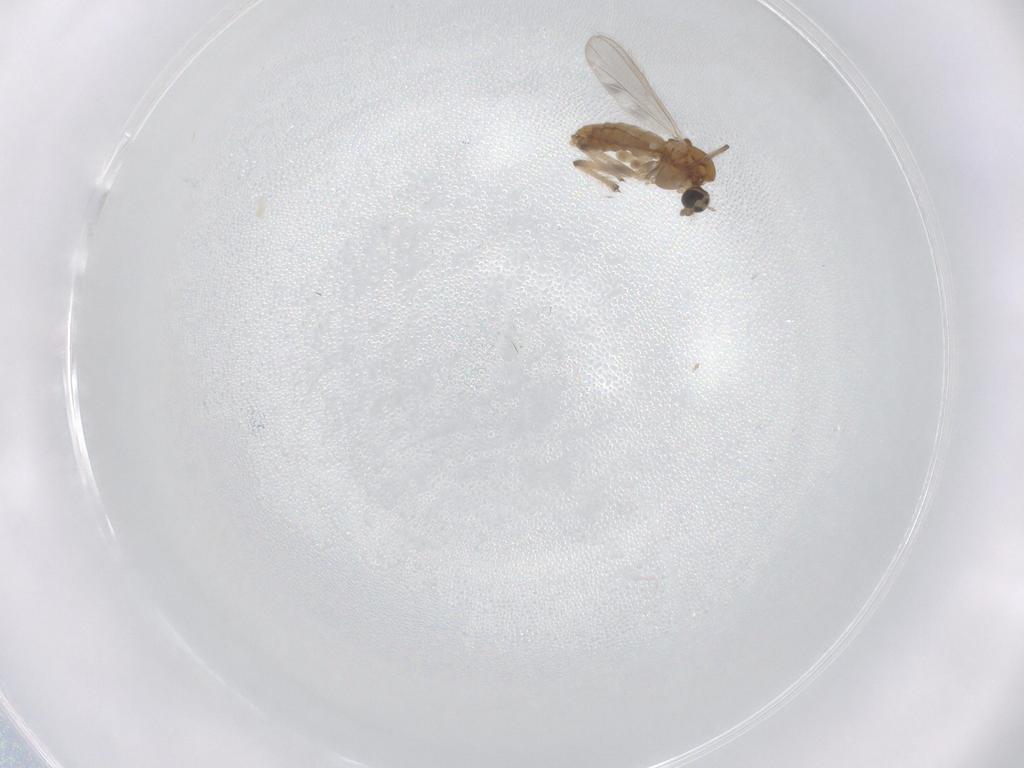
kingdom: Animalia
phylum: Arthropoda
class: Insecta
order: Diptera
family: Chironomidae
